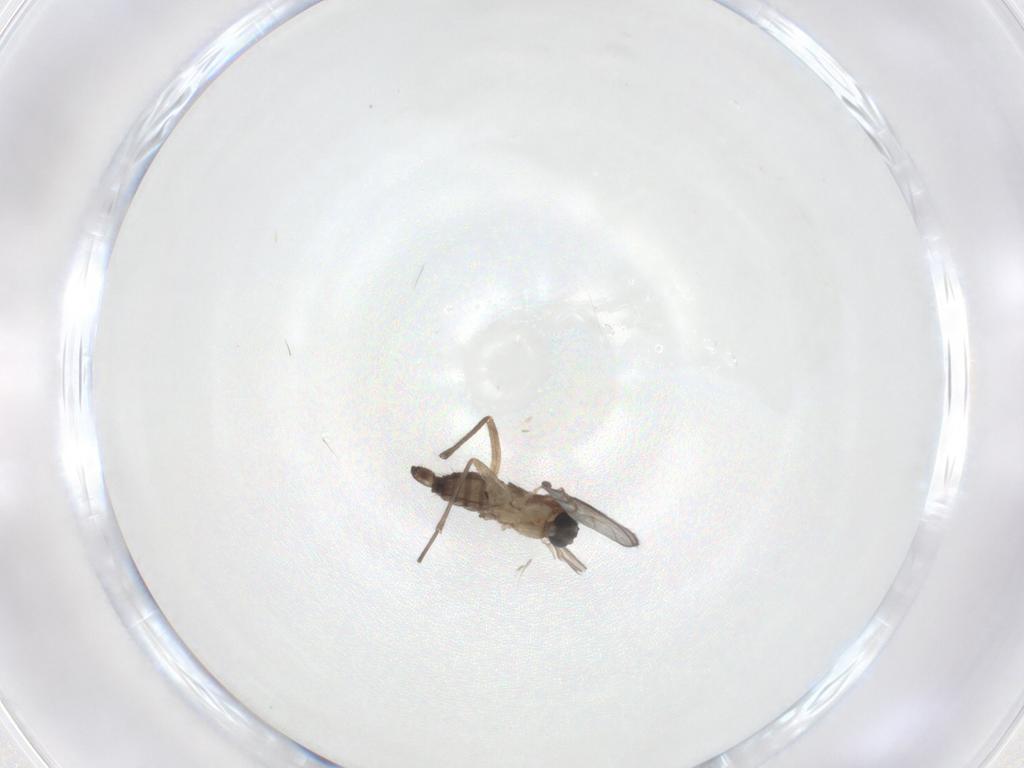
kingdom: Animalia
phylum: Arthropoda
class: Insecta
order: Diptera
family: Sciaridae
